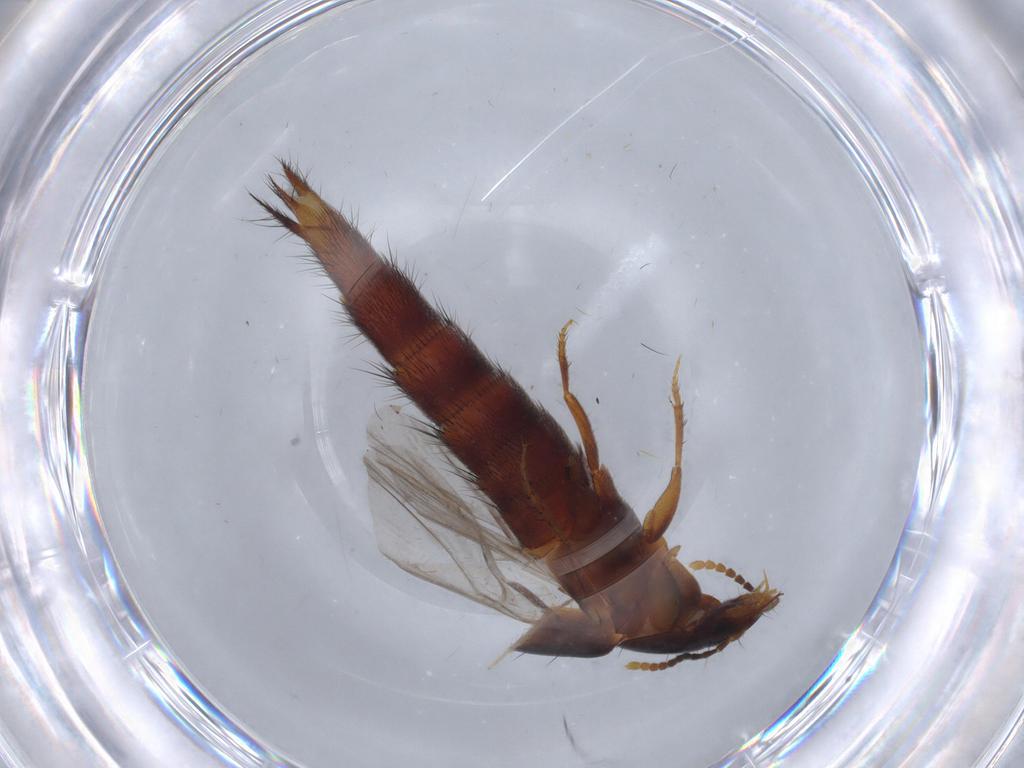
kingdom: Animalia
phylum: Arthropoda
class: Insecta
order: Coleoptera
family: Staphylinidae
